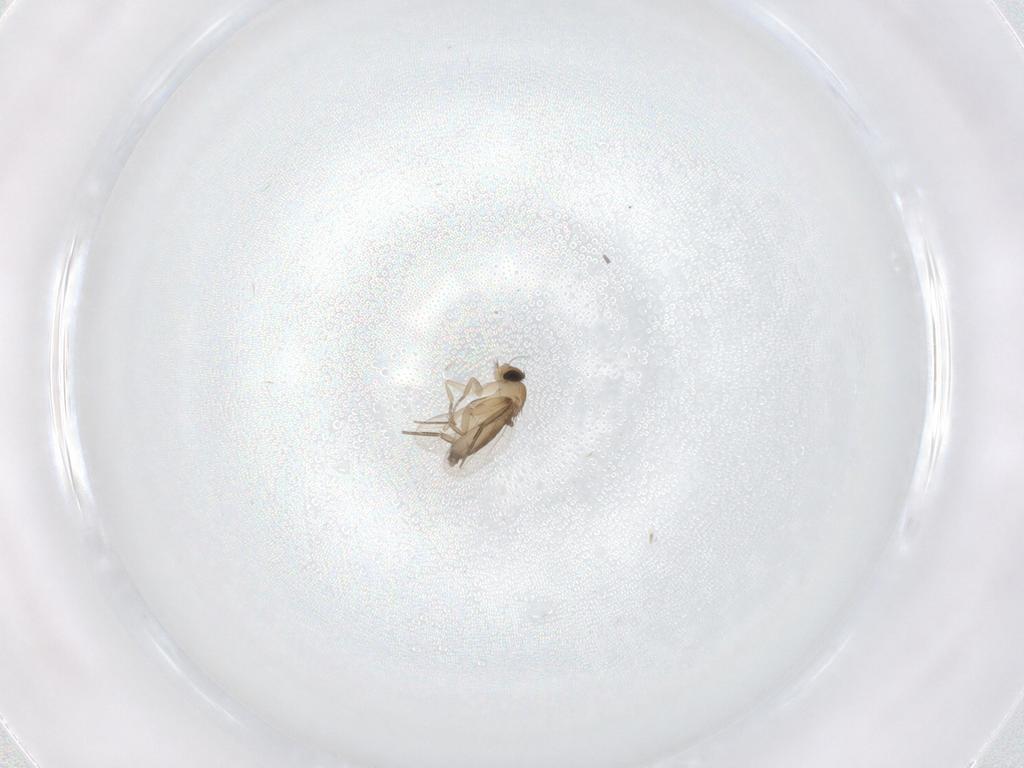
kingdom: Animalia
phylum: Arthropoda
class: Insecta
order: Diptera
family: Phoridae
